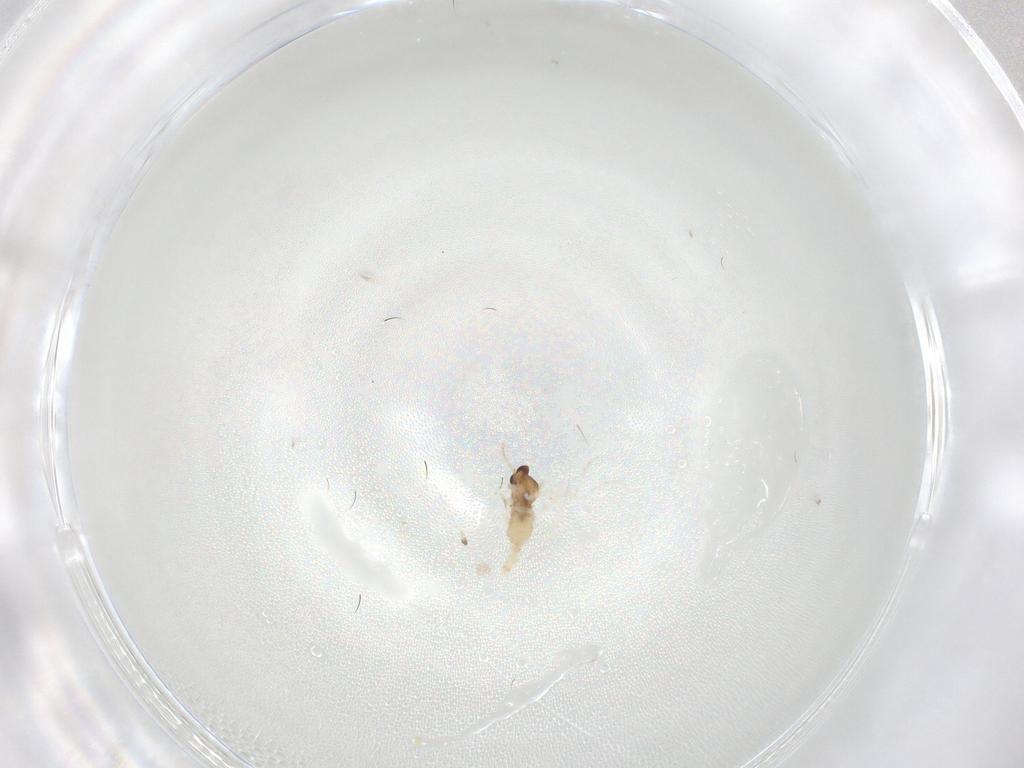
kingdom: Animalia
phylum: Arthropoda
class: Insecta
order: Diptera
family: Cecidomyiidae
